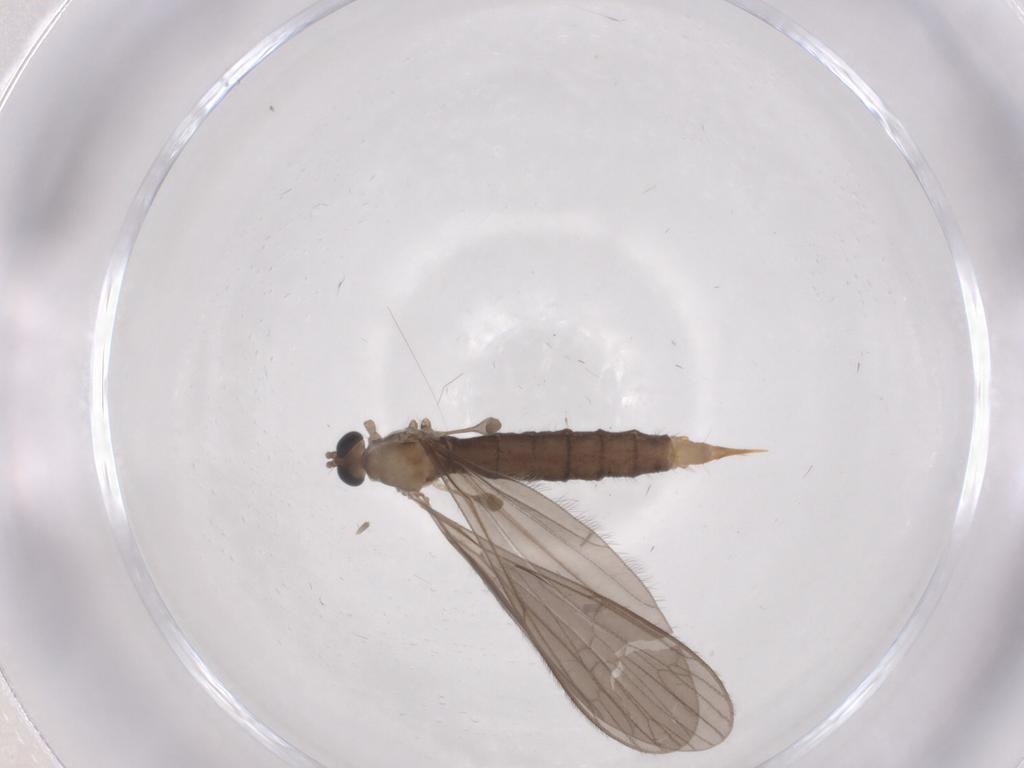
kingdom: Animalia
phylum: Arthropoda
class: Insecta
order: Diptera
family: Limoniidae
